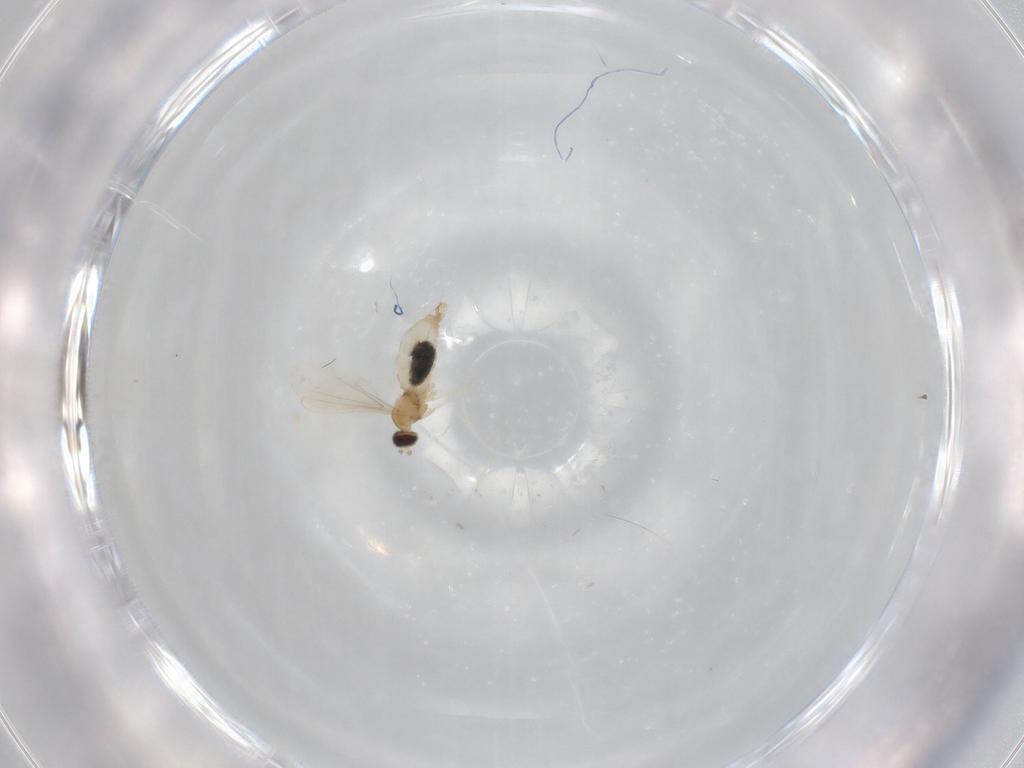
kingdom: Animalia
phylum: Arthropoda
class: Insecta
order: Diptera
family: Cecidomyiidae
